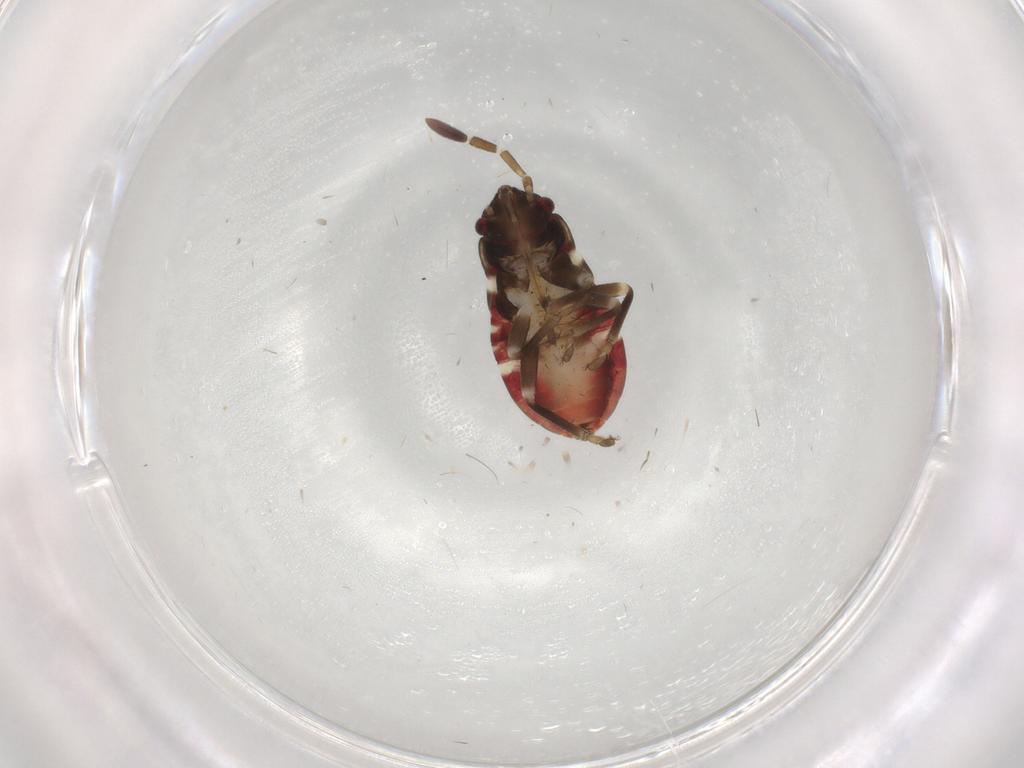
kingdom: Animalia
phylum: Arthropoda
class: Insecta
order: Hemiptera
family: Rhyparochromidae
